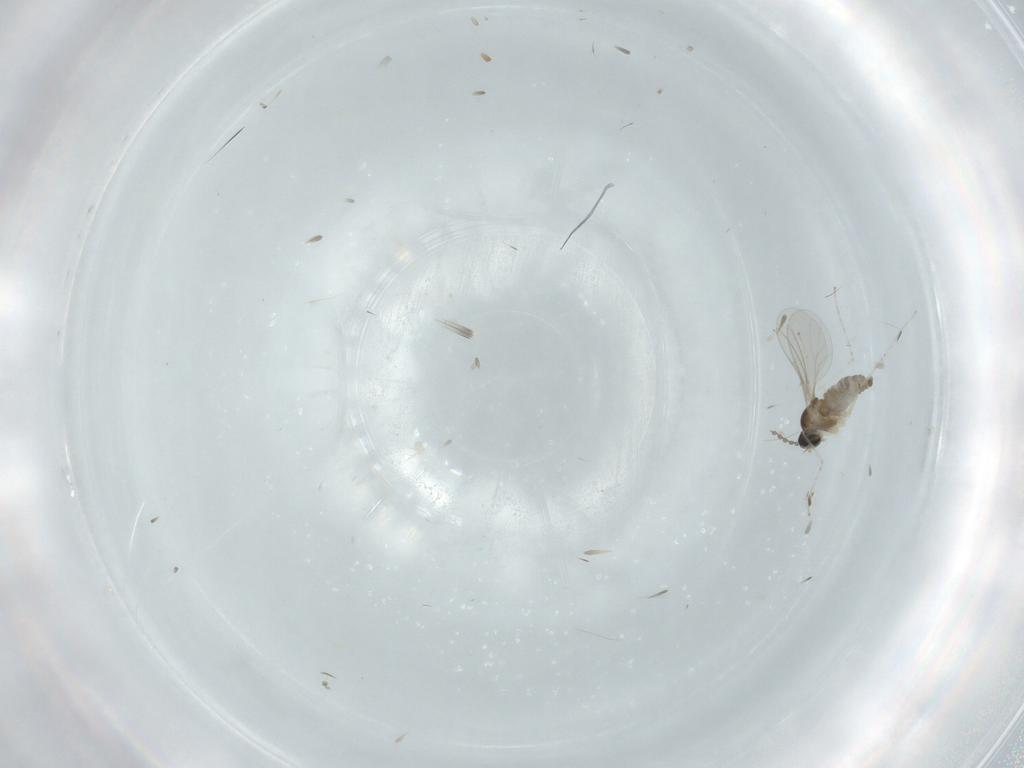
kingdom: Animalia
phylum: Arthropoda
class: Insecta
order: Diptera
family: Cecidomyiidae
